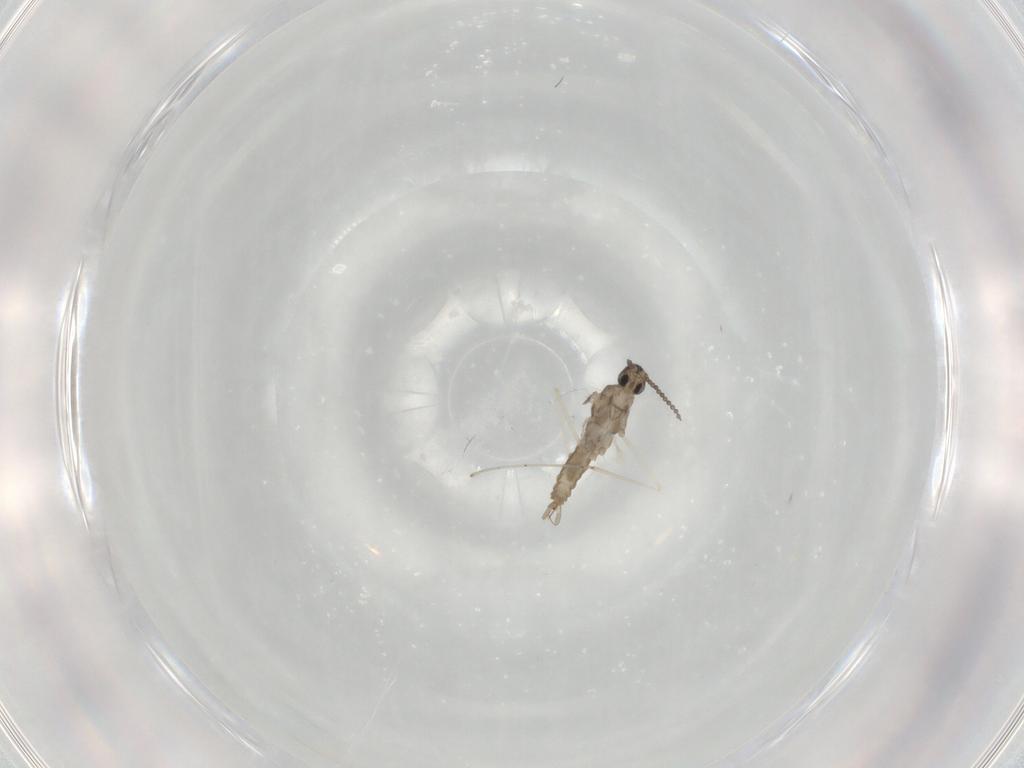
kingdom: Animalia
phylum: Arthropoda
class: Insecta
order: Diptera
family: Cecidomyiidae
